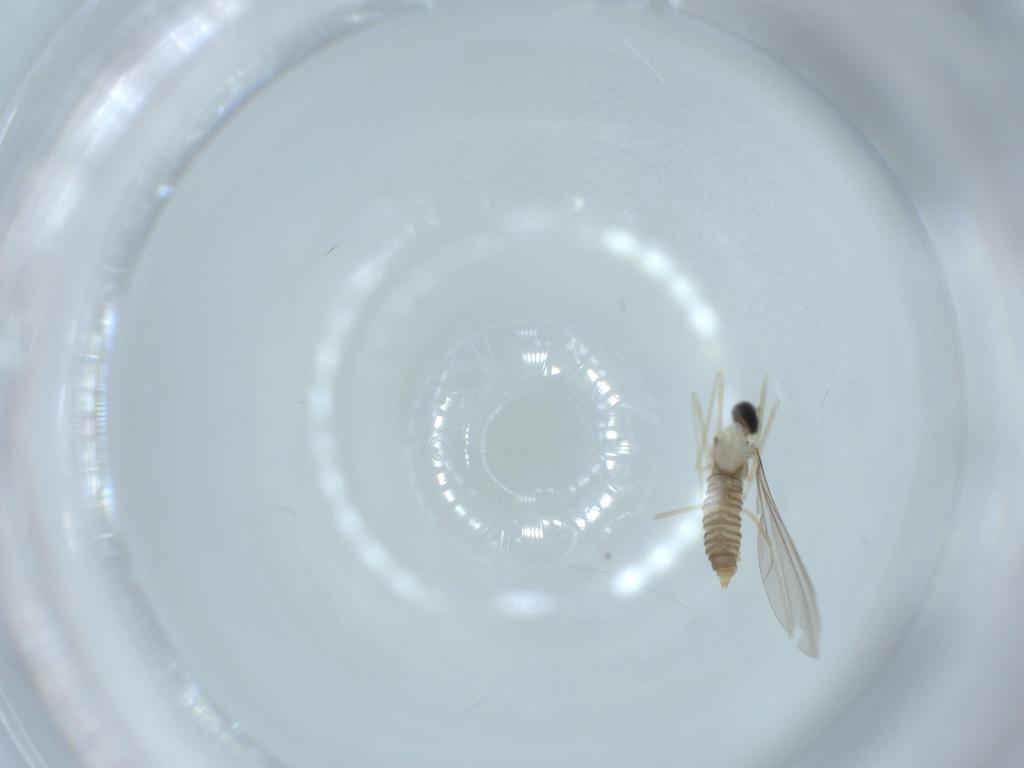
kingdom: Animalia
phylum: Arthropoda
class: Insecta
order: Diptera
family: Cecidomyiidae
